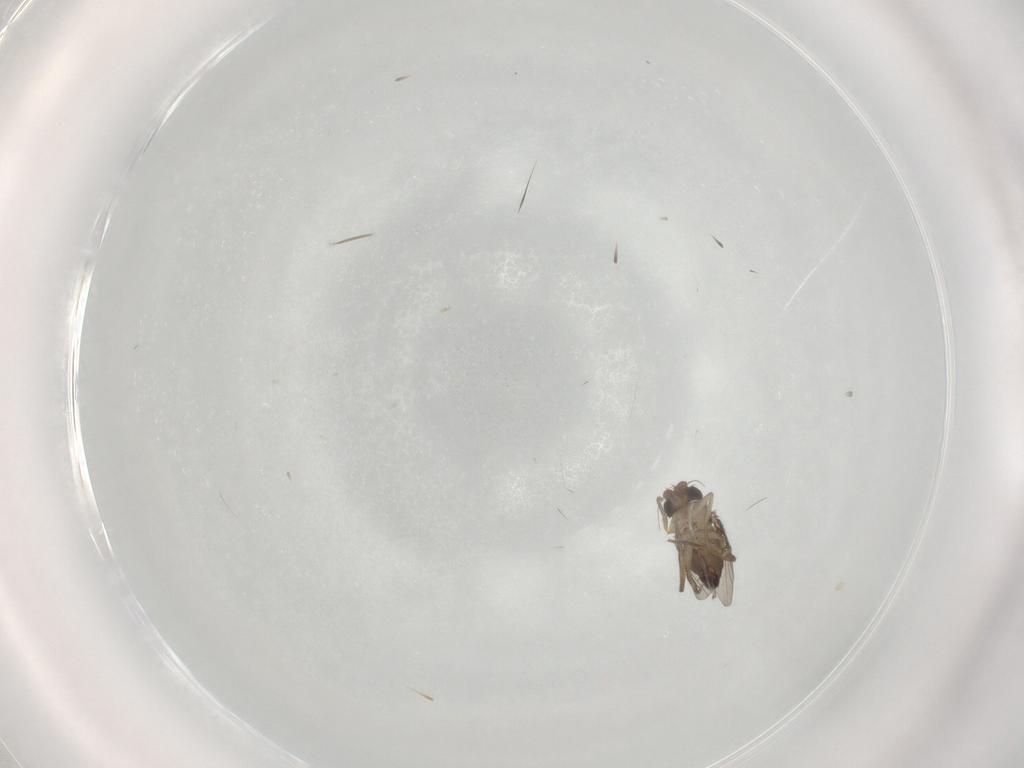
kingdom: Animalia
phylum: Arthropoda
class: Insecta
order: Diptera
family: Phoridae
